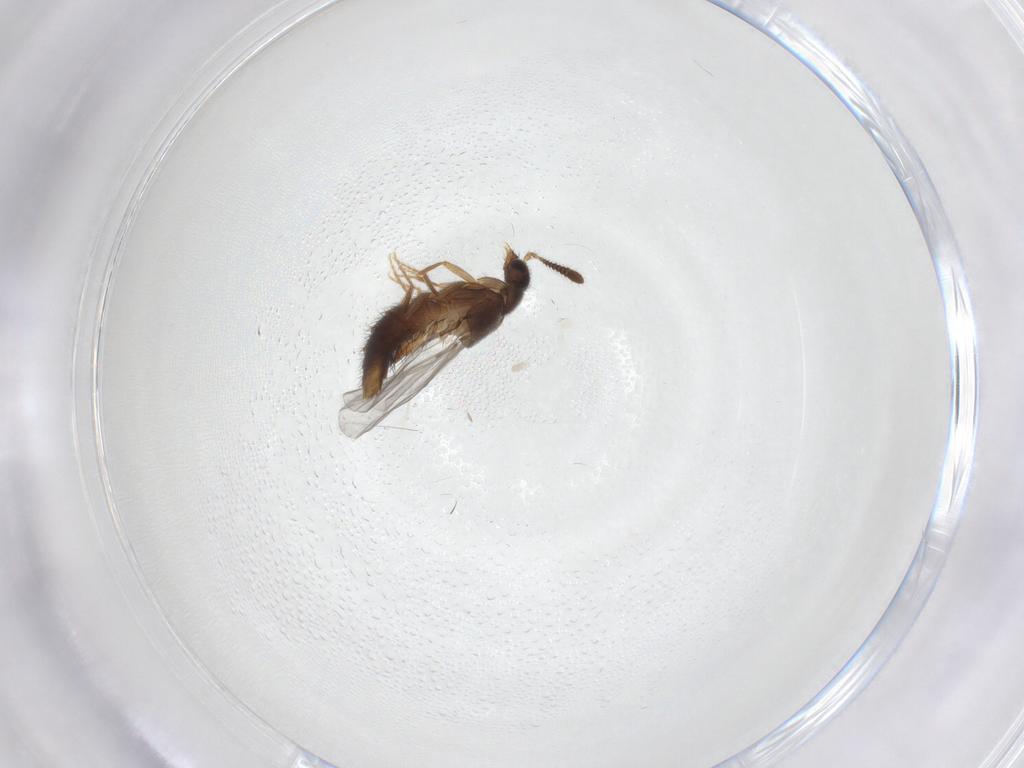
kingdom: Animalia
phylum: Arthropoda
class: Insecta
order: Coleoptera
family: Staphylinidae
